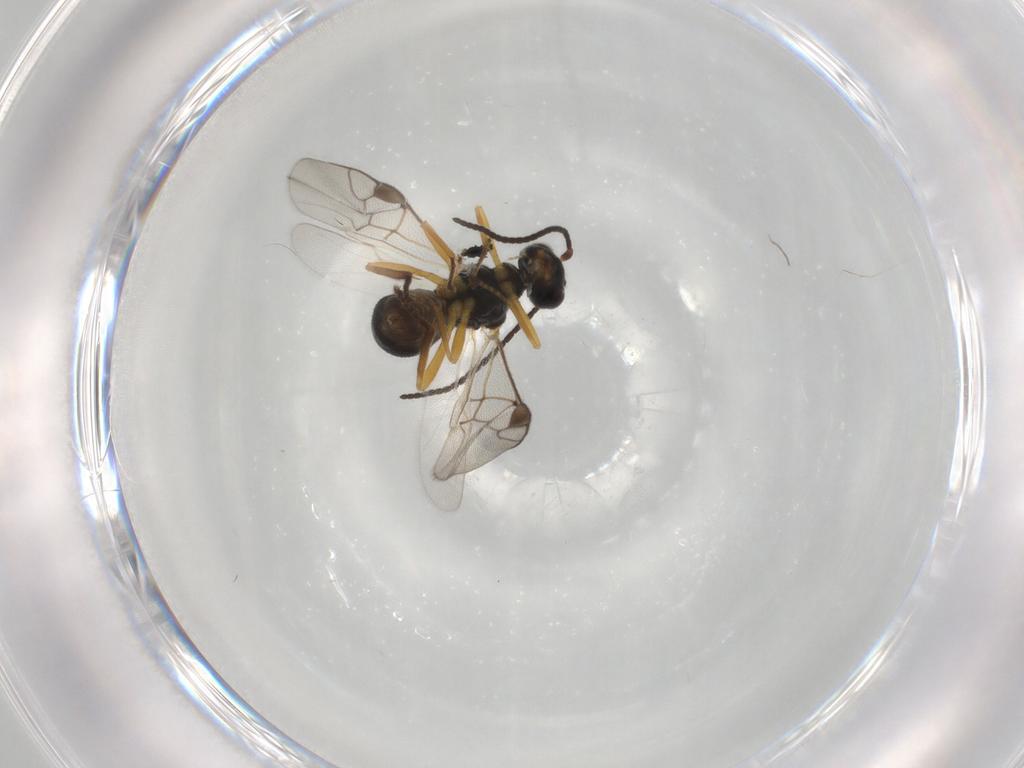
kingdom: Animalia
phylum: Arthropoda
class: Insecta
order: Hymenoptera
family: Braconidae
